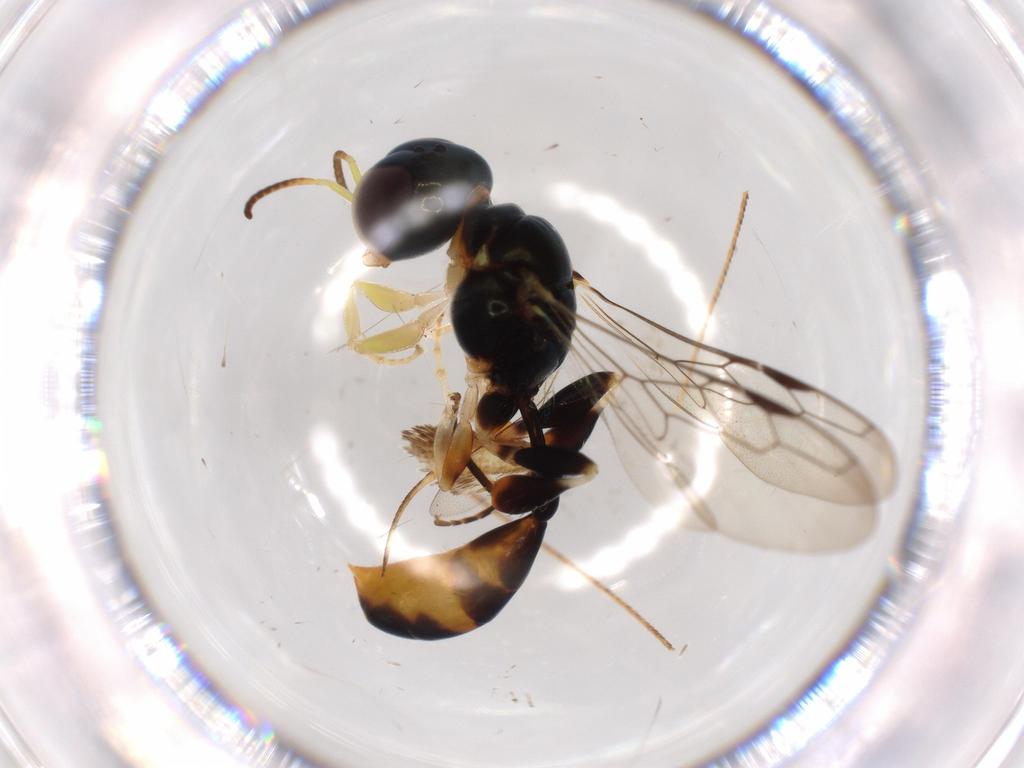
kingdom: Animalia
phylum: Arthropoda
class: Insecta
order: Hymenoptera
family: Signiphoridae
